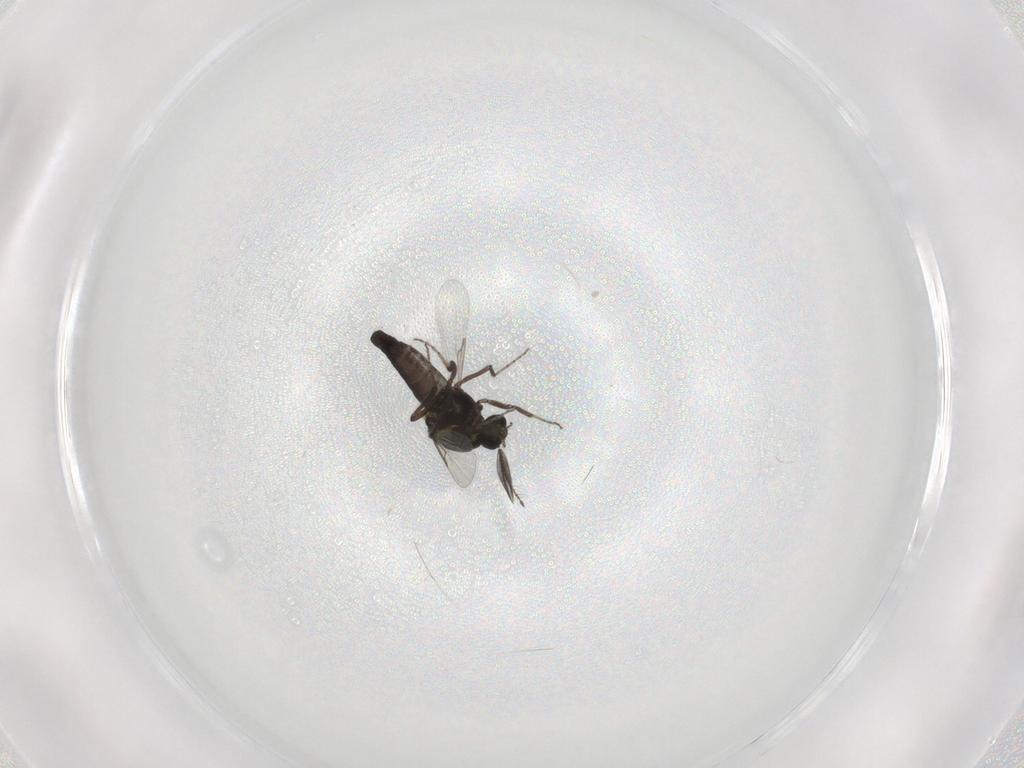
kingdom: Animalia
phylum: Arthropoda
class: Insecta
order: Diptera
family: Ceratopogonidae
